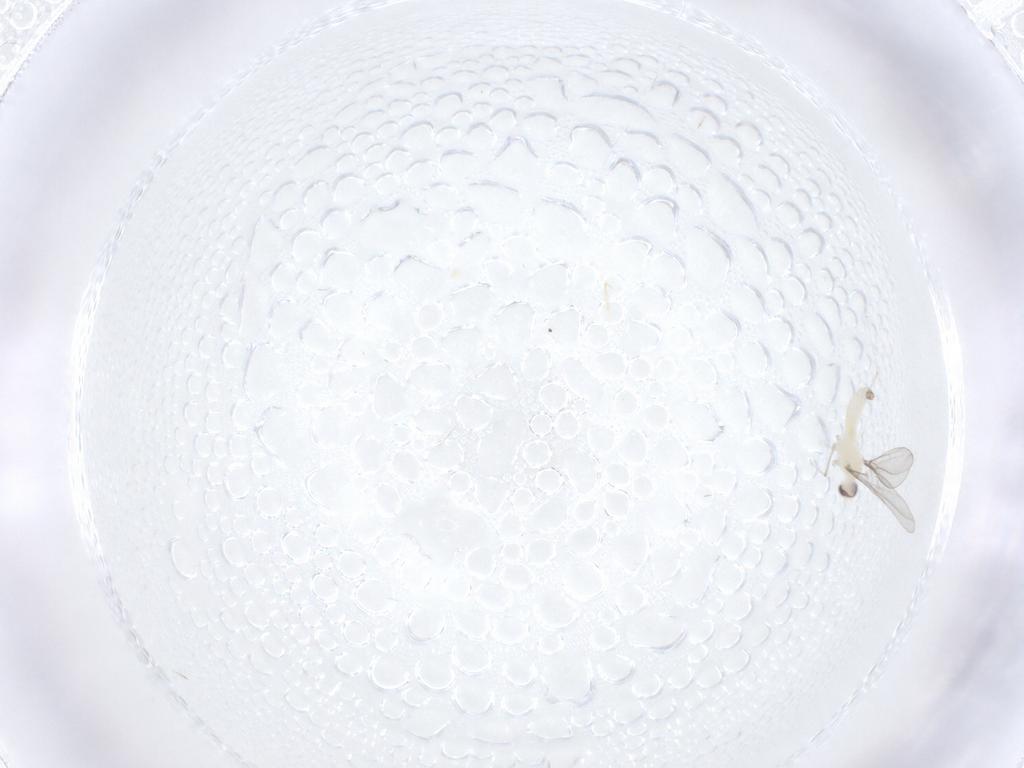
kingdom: Animalia
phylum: Arthropoda
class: Insecta
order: Diptera
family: Cecidomyiidae
